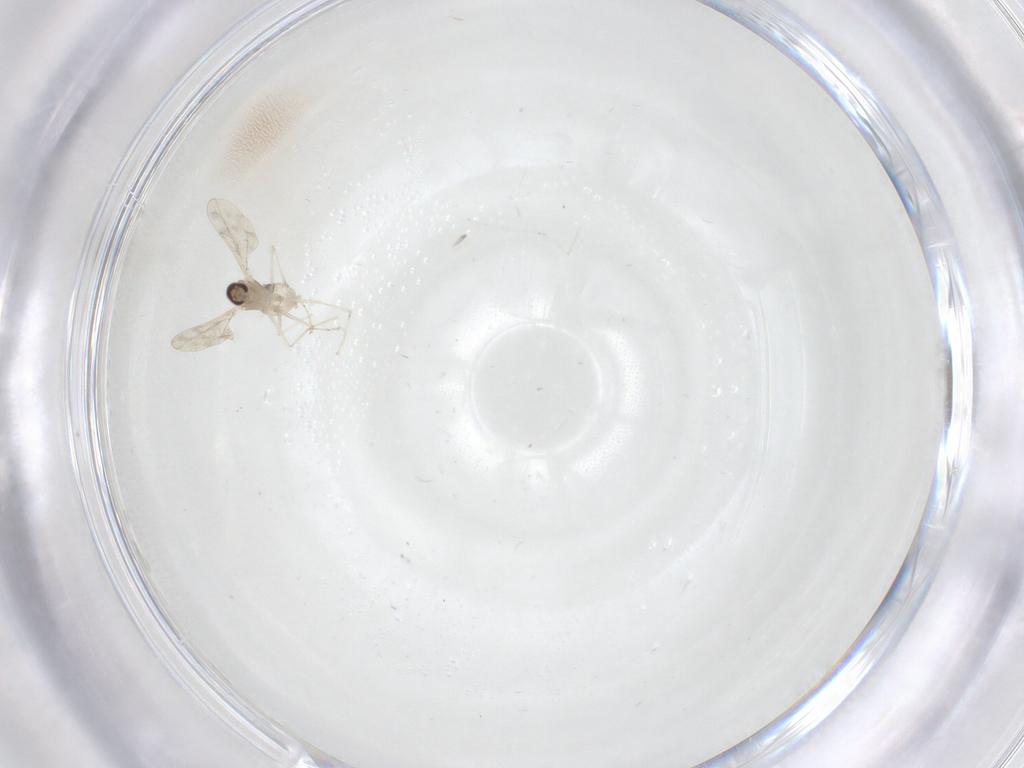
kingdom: Animalia
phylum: Arthropoda
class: Insecta
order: Diptera
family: Cecidomyiidae
